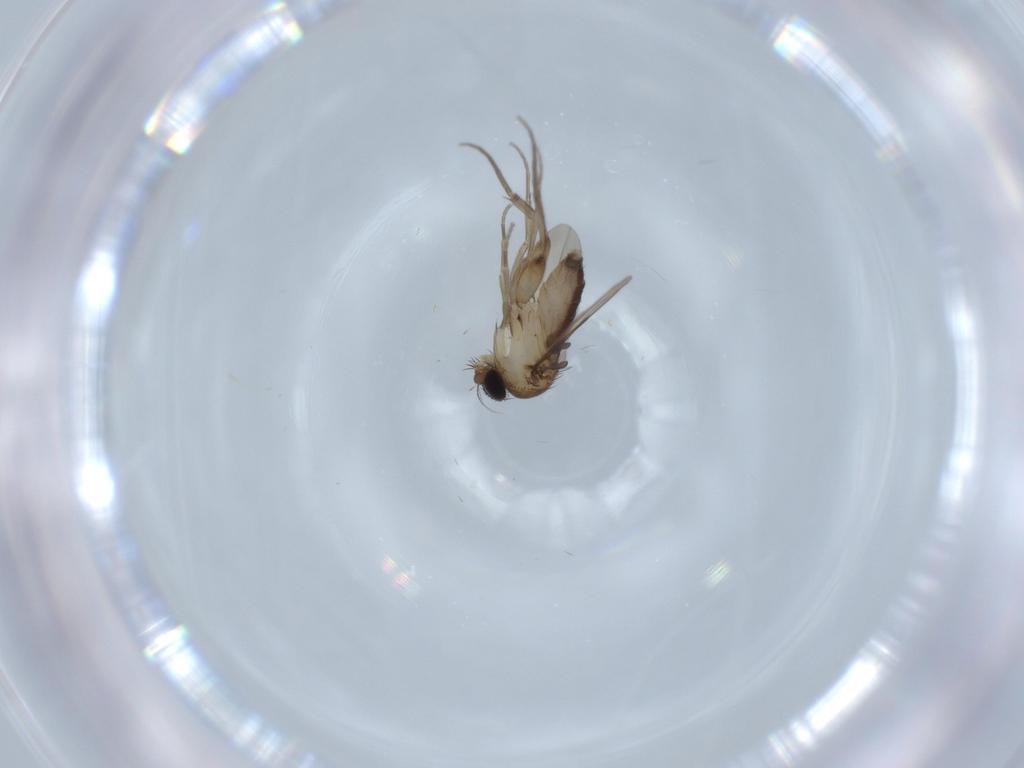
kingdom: Animalia
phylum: Arthropoda
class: Insecta
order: Diptera
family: Phoridae
